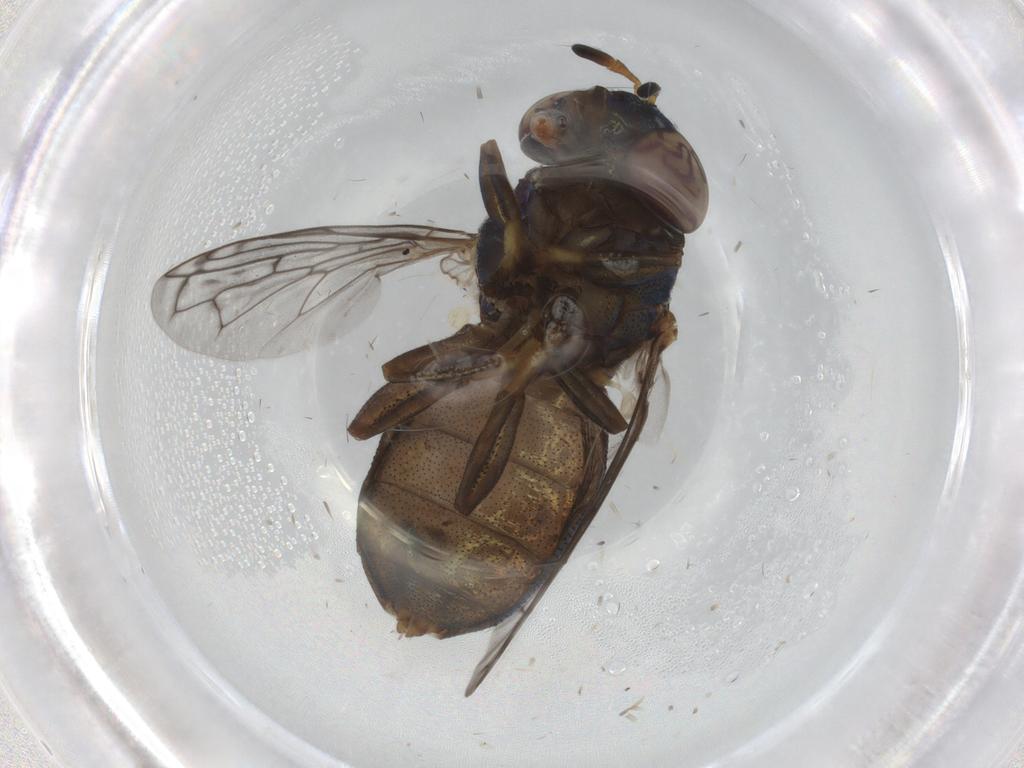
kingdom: Animalia
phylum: Arthropoda
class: Insecta
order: Diptera
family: Syrphidae
